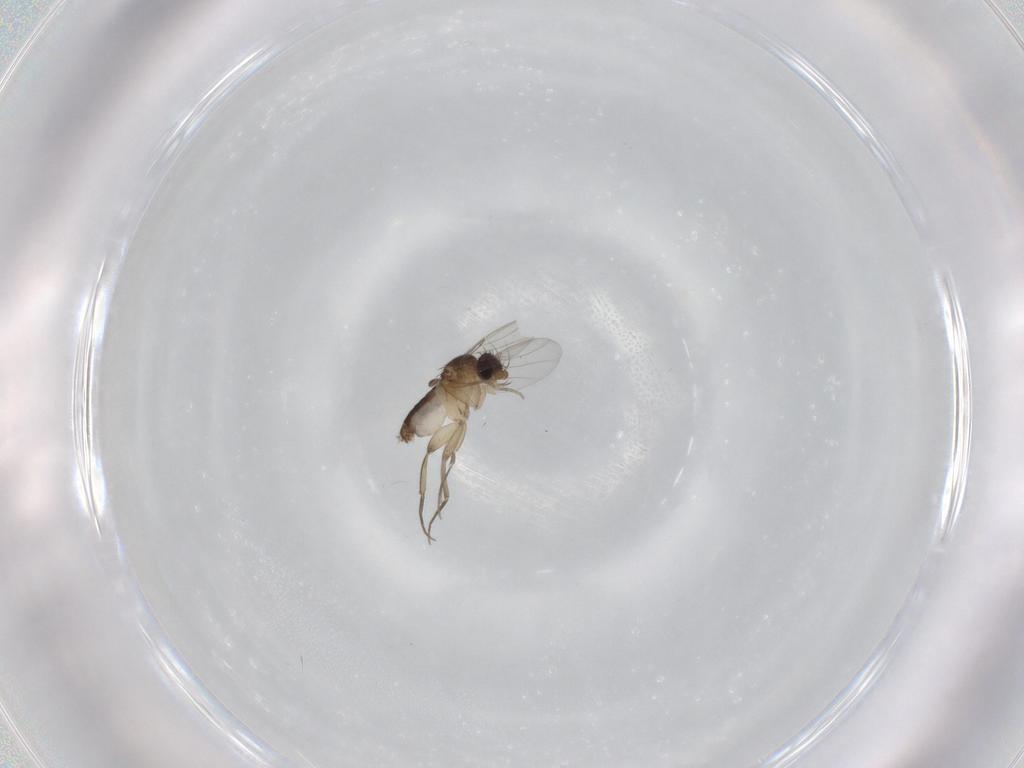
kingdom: Animalia
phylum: Arthropoda
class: Insecta
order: Diptera
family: Phoridae
